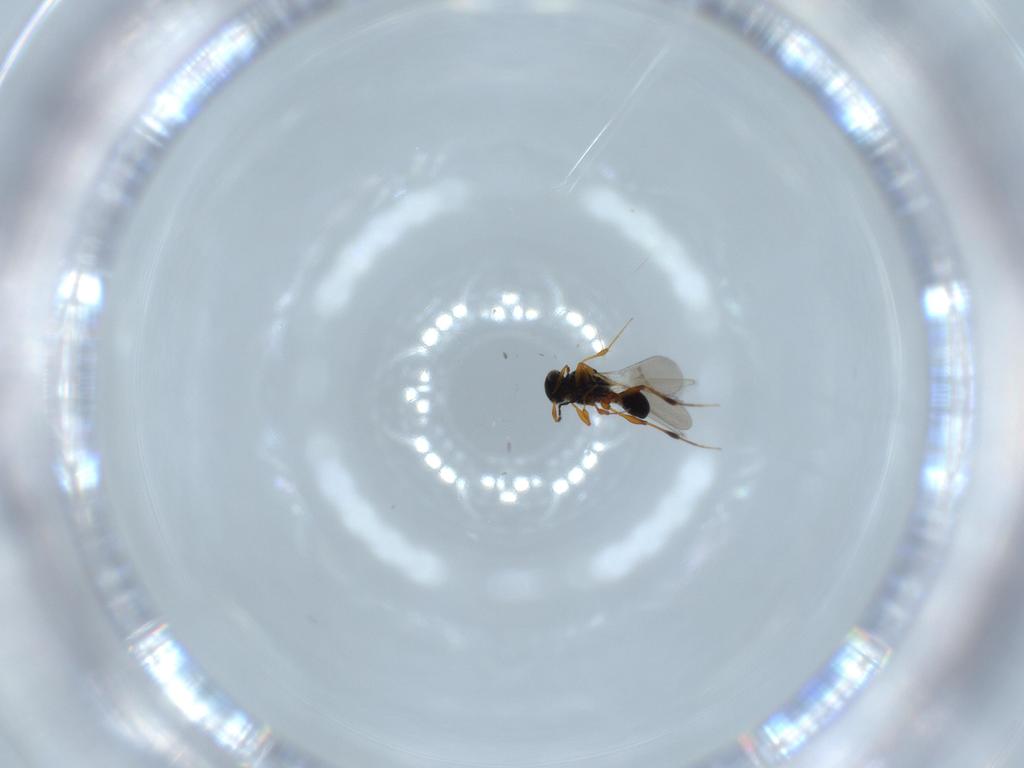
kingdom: Animalia
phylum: Arthropoda
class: Insecta
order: Hymenoptera
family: Platygastridae
